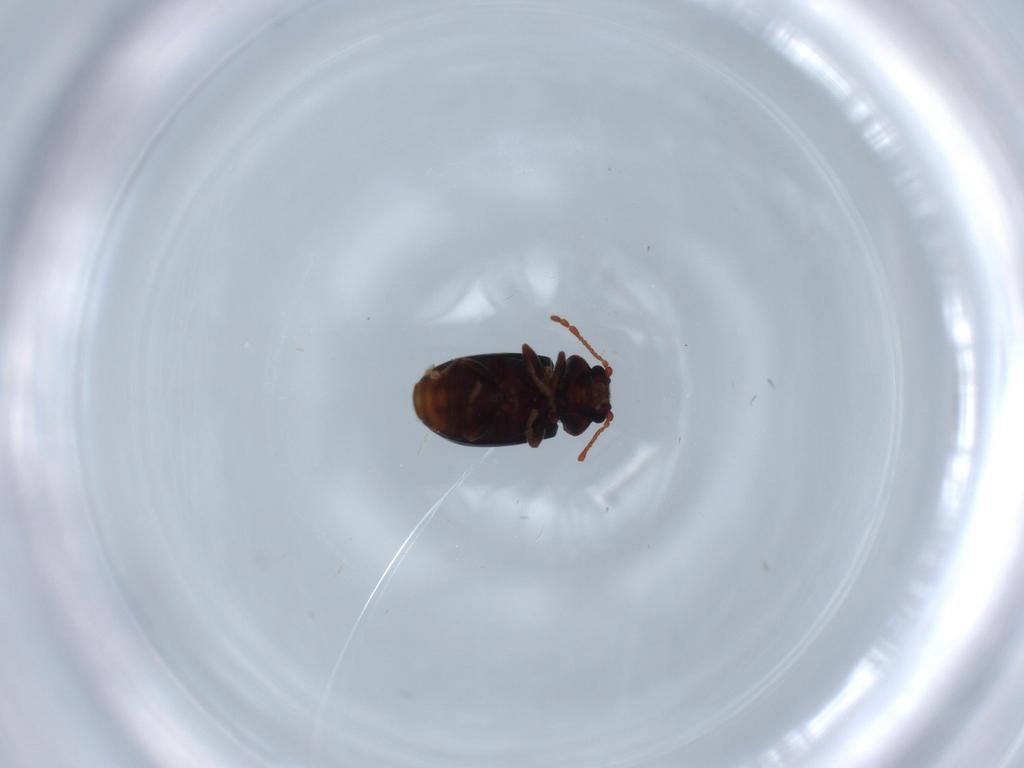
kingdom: Animalia
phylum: Arthropoda
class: Insecta
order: Coleoptera
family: Ptinidae
